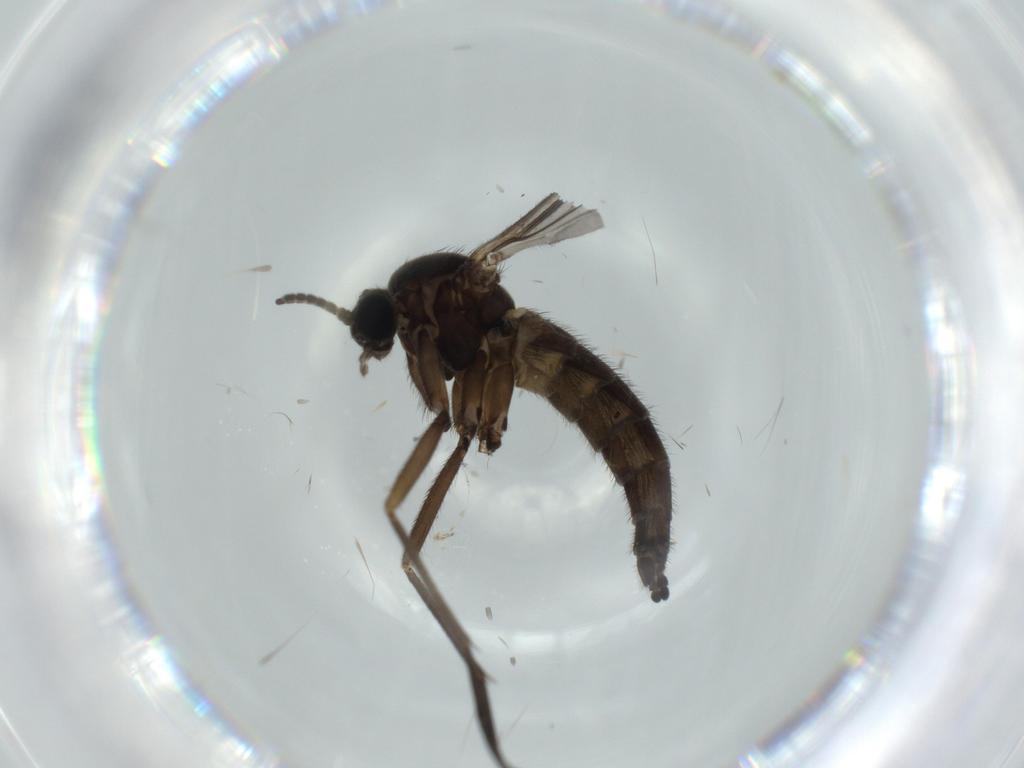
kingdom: Animalia
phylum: Arthropoda
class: Insecta
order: Diptera
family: Sciaridae
